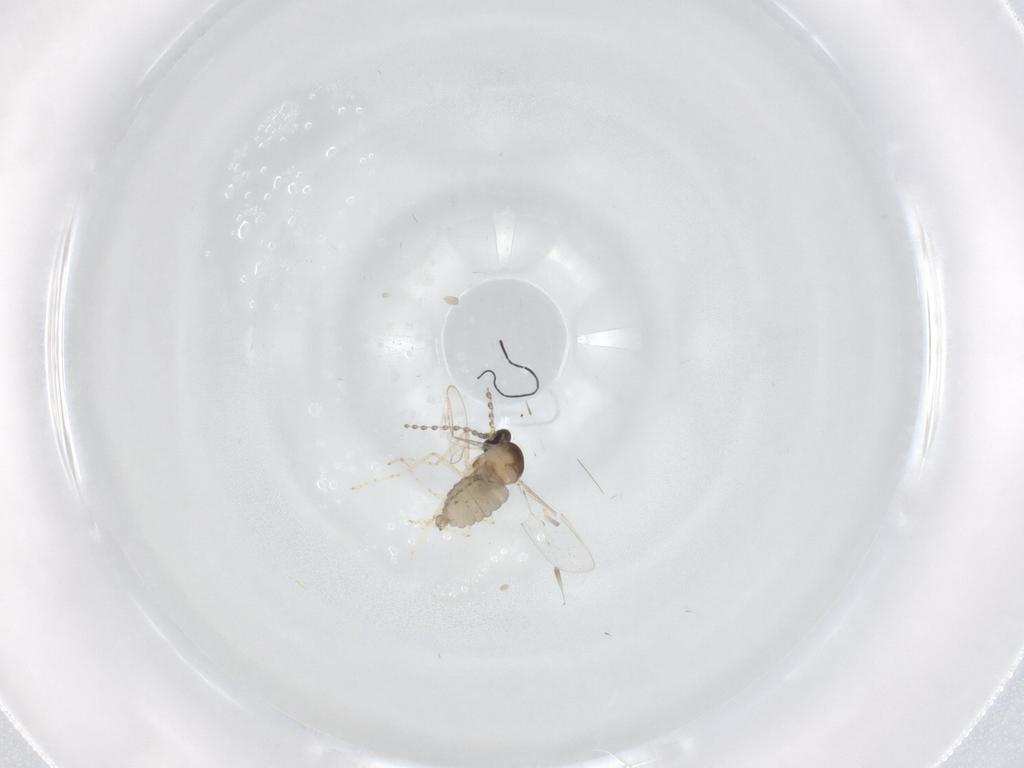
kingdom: Animalia
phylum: Arthropoda
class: Insecta
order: Diptera
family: Cecidomyiidae
